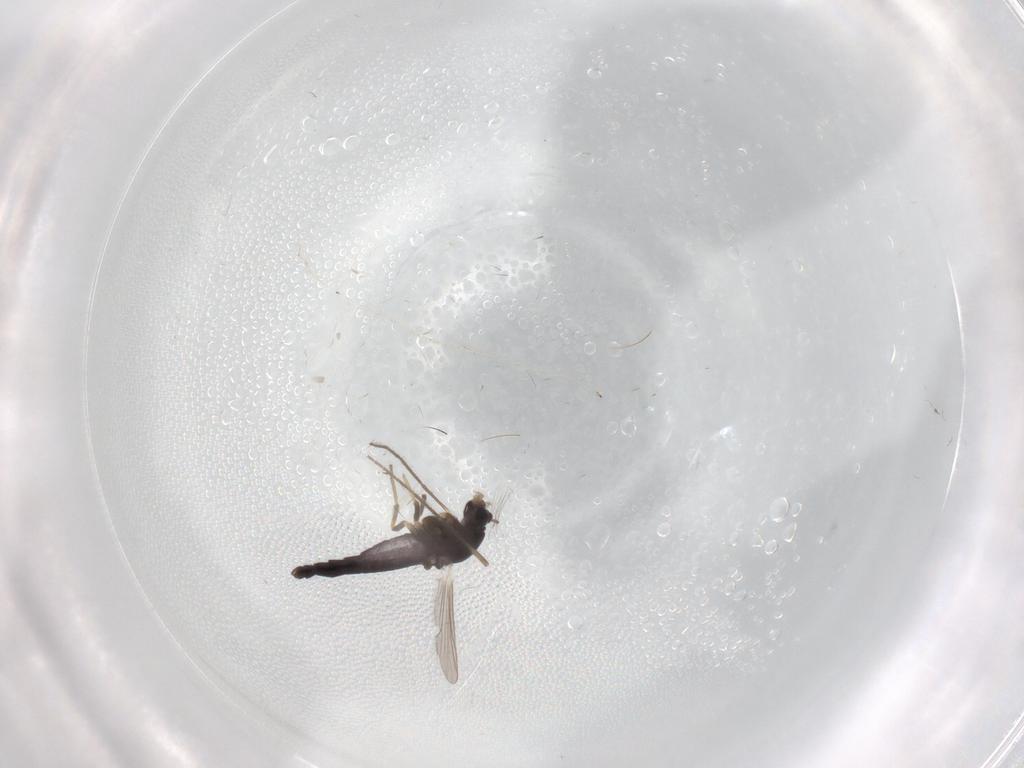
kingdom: Animalia
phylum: Arthropoda
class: Insecta
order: Diptera
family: Chironomidae
